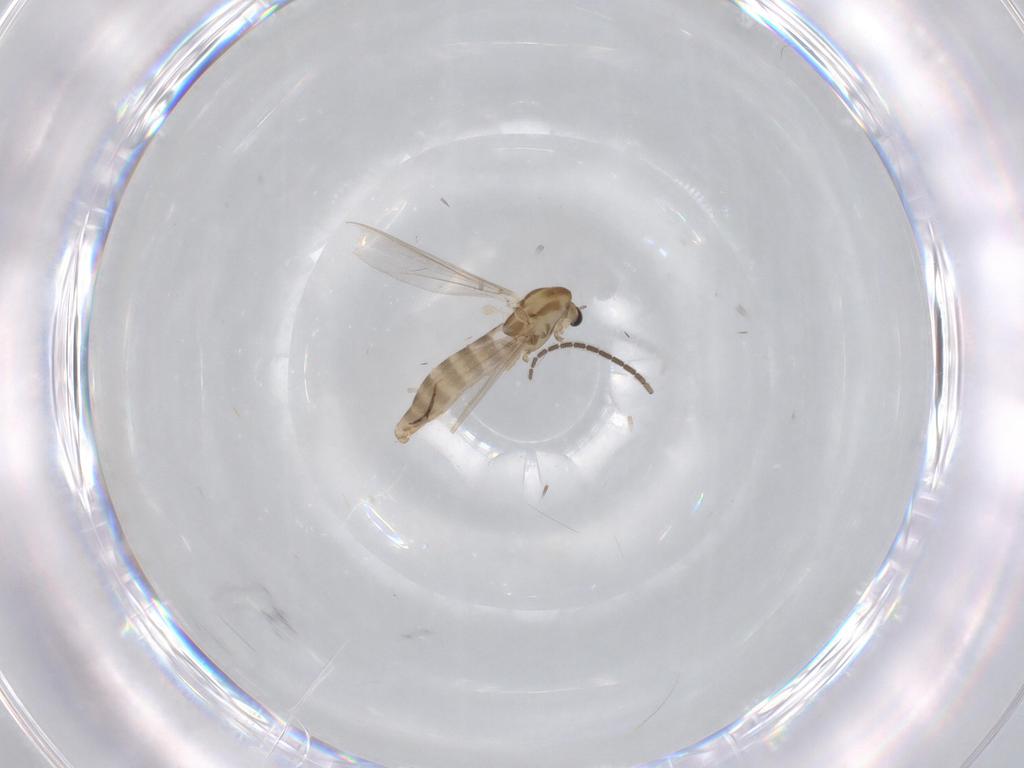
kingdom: Animalia
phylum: Arthropoda
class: Insecta
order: Diptera
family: Chironomidae
